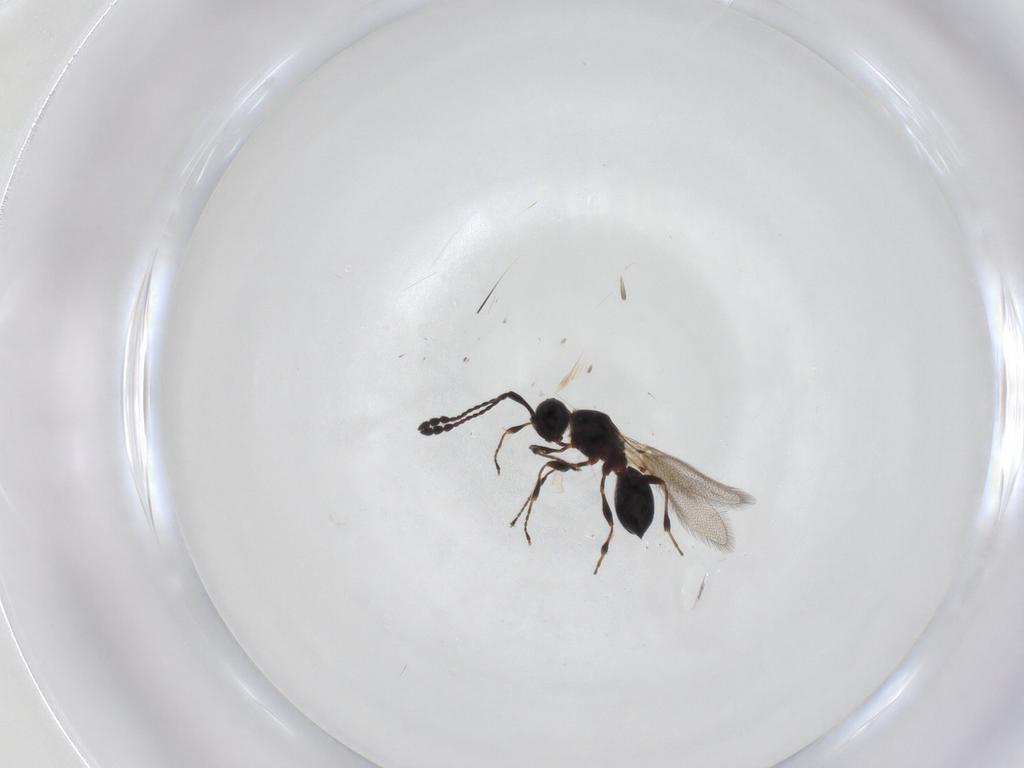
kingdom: Animalia
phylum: Arthropoda
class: Insecta
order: Hymenoptera
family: Diapriidae
